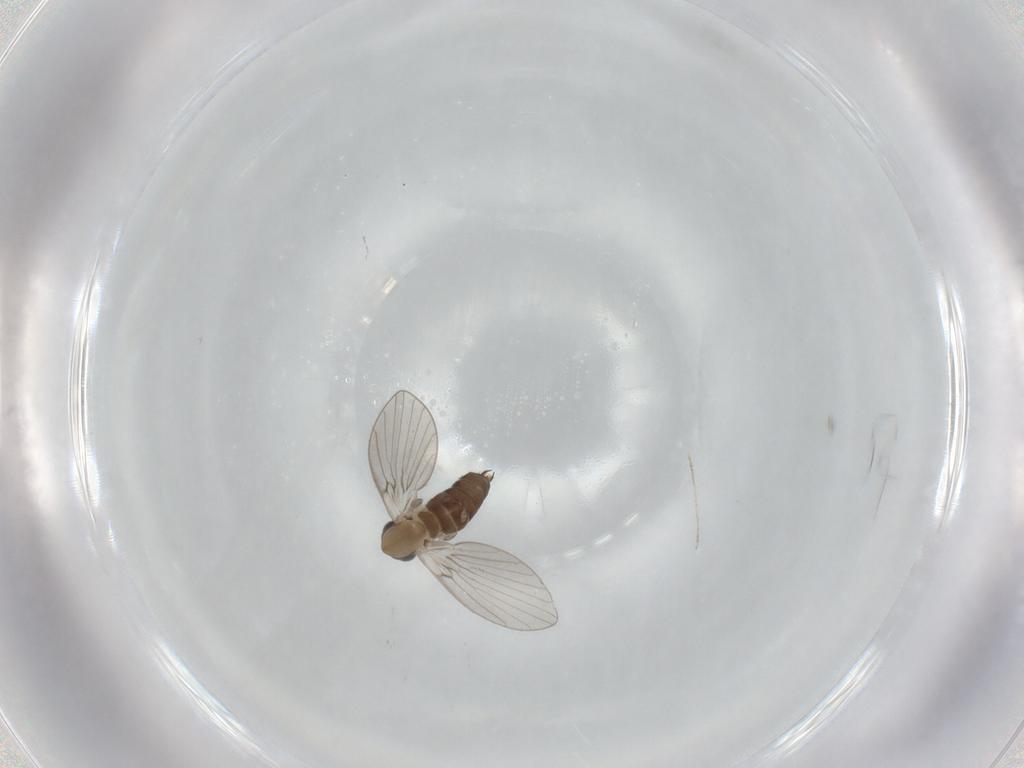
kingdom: Animalia
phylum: Arthropoda
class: Insecta
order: Diptera
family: Psychodidae
